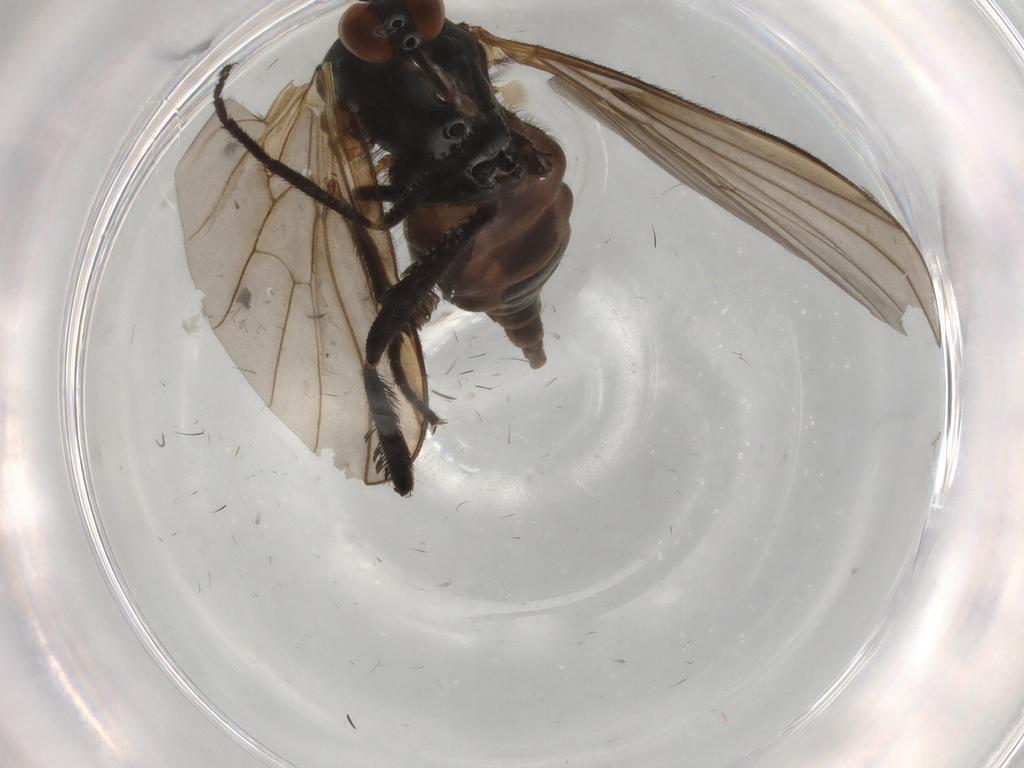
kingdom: Animalia
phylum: Arthropoda
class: Insecta
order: Diptera
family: Empididae
